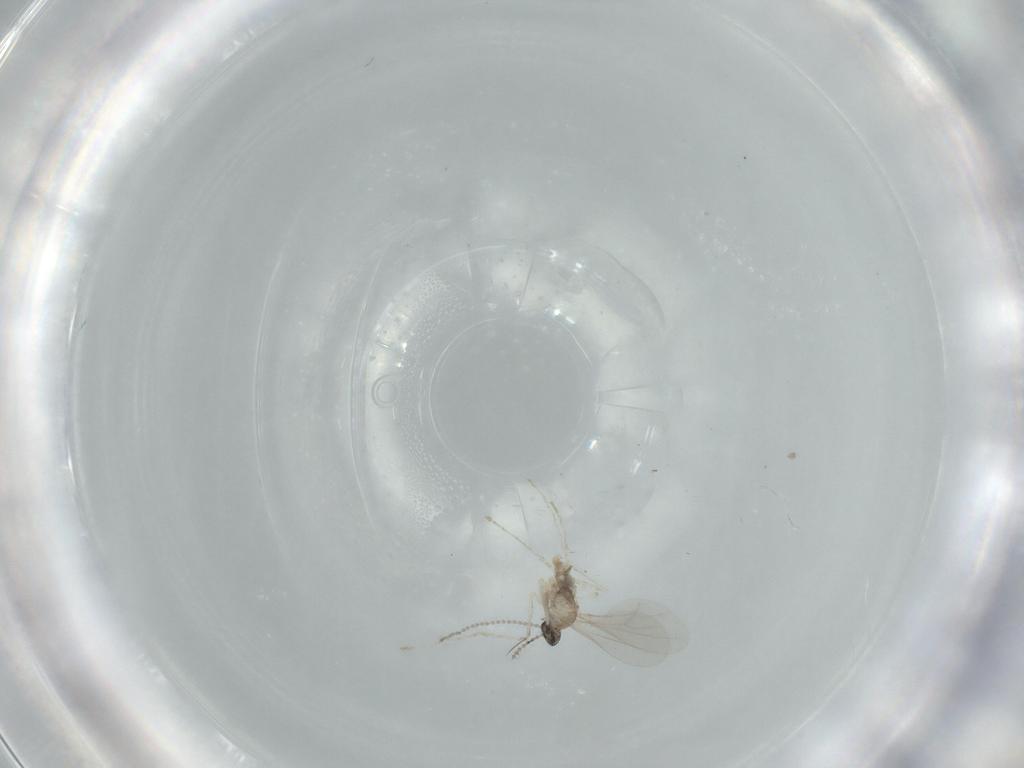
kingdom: Animalia
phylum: Arthropoda
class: Insecta
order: Diptera
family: Cecidomyiidae
